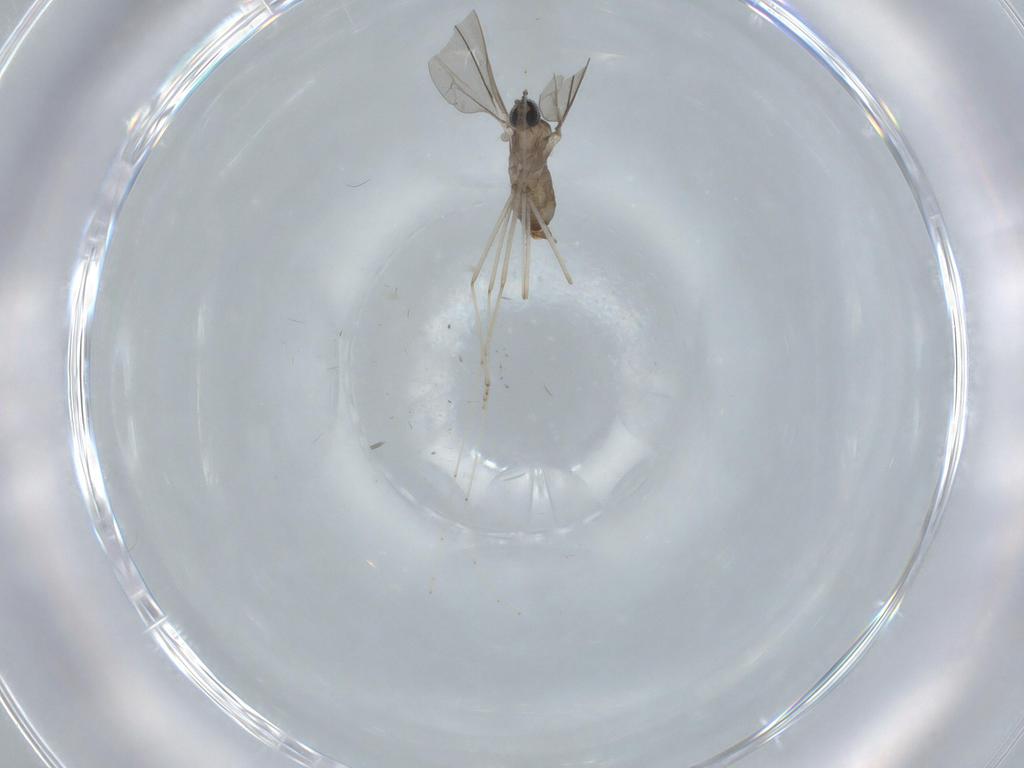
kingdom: Animalia
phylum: Arthropoda
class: Insecta
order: Diptera
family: Cecidomyiidae
